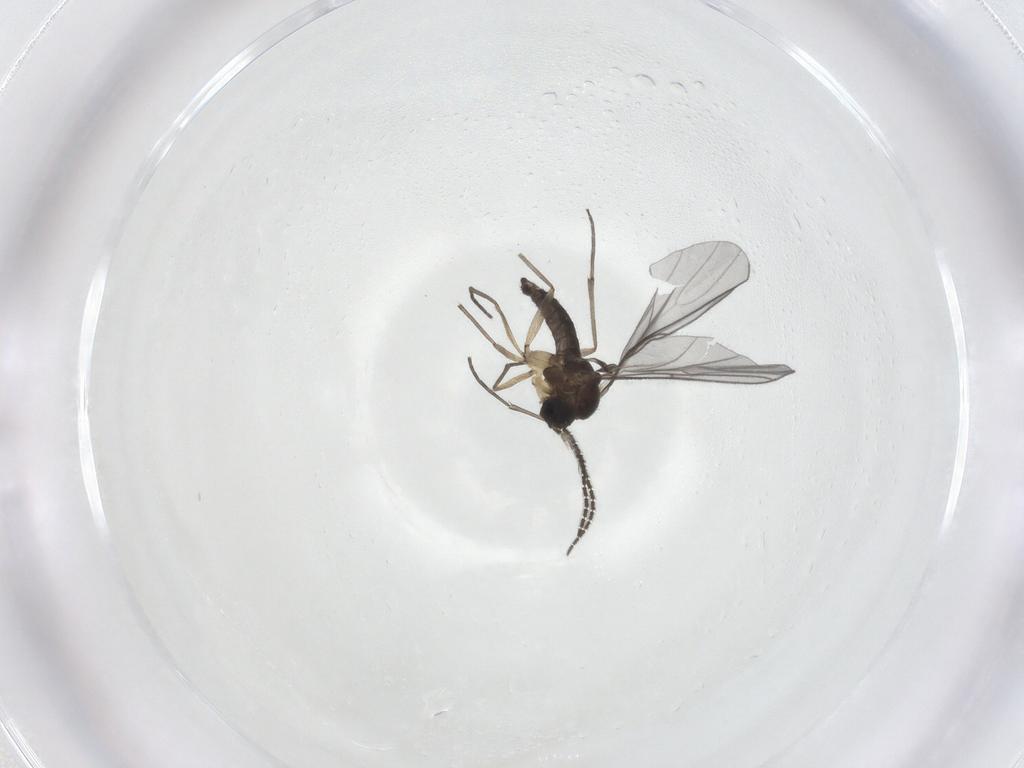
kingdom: Animalia
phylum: Arthropoda
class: Insecta
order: Diptera
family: Sciaridae
